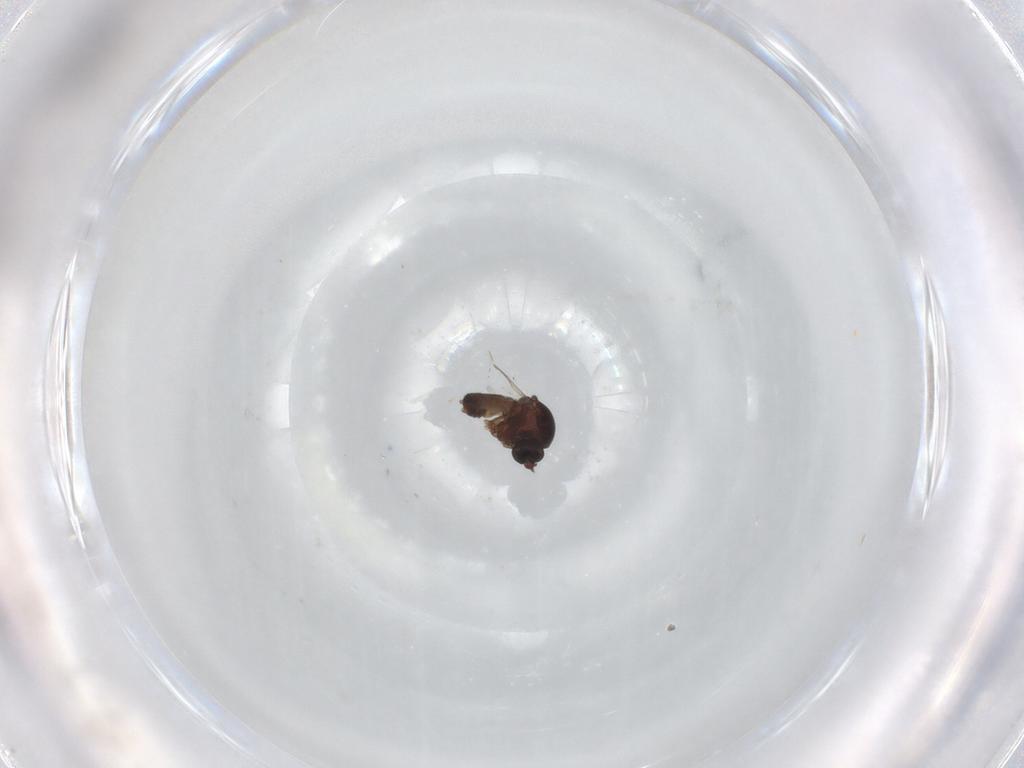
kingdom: Animalia
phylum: Arthropoda
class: Insecta
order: Diptera
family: Ceratopogonidae
